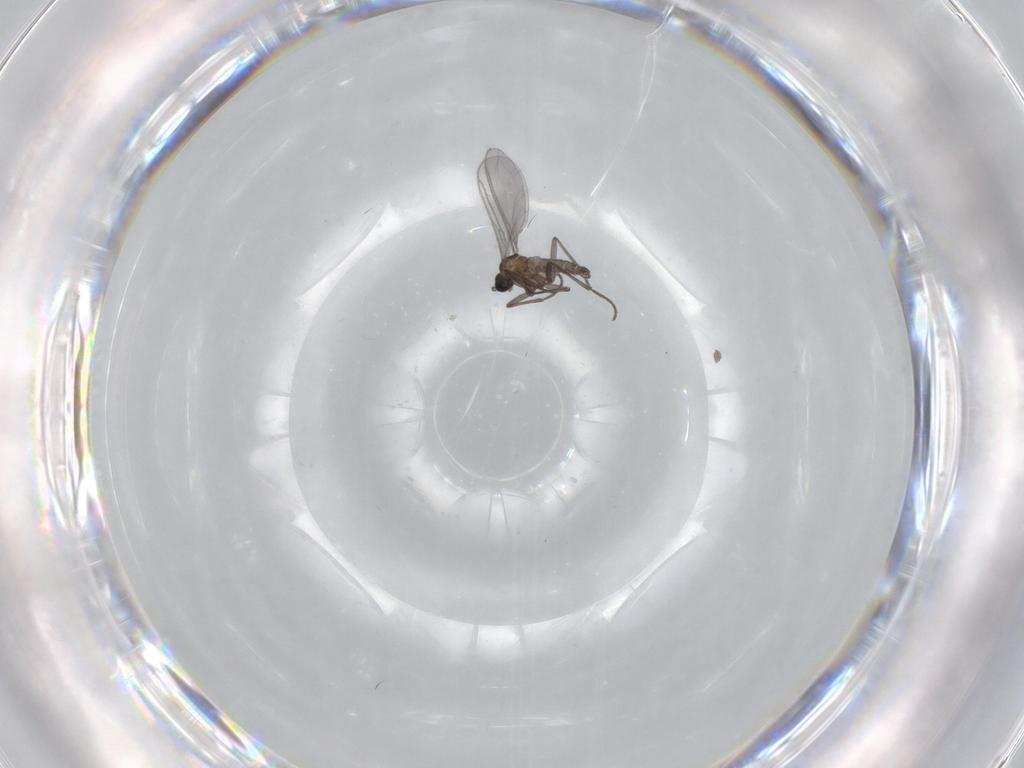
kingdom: Animalia
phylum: Arthropoda
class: Insecta
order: Diptera
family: Sciaridae
